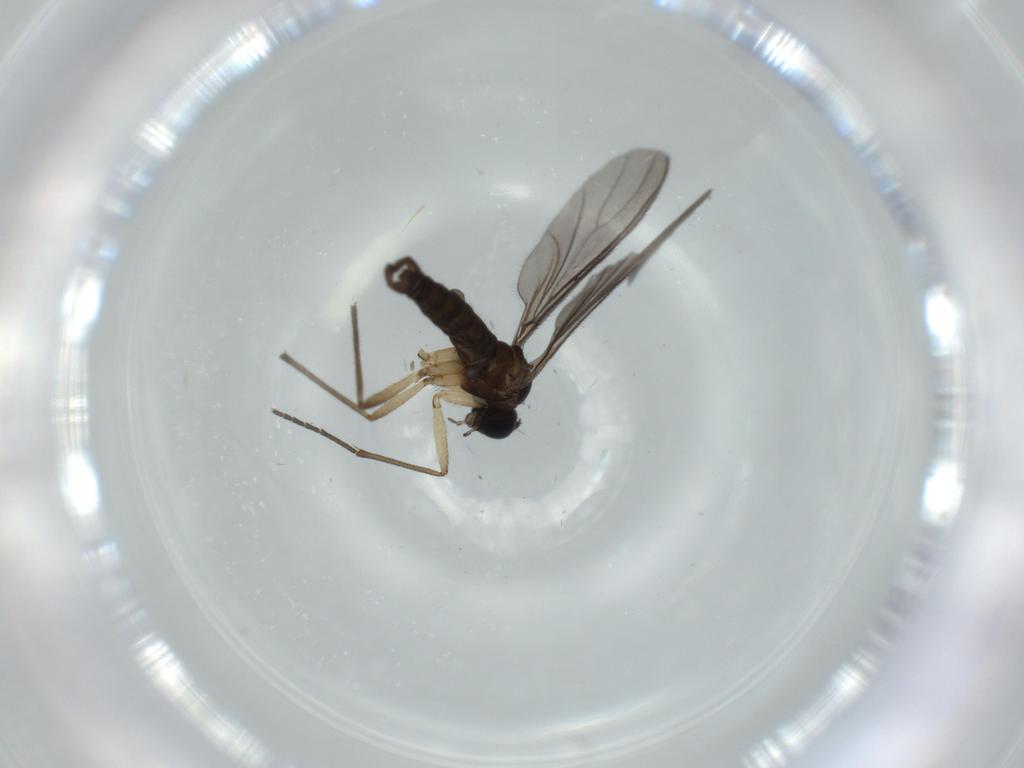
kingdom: Animalia
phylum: Arthropoda
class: Insecta
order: Diptera
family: Sciaridae
